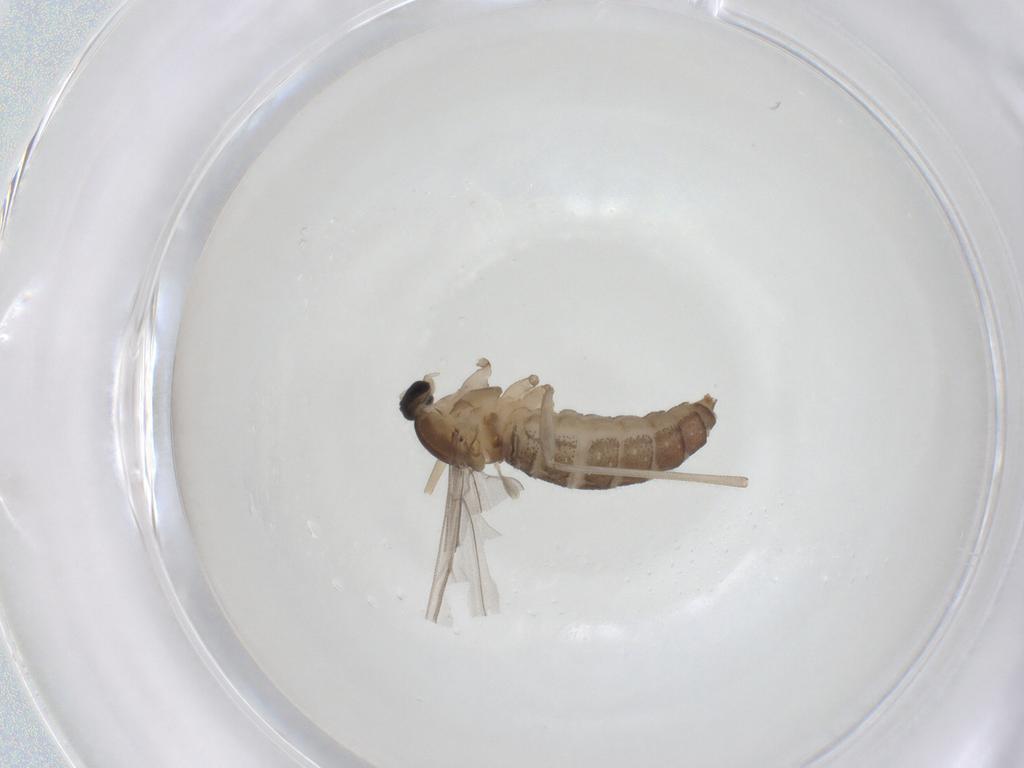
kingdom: Animalia
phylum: Arthropoda
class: Insecta
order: Diptera
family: Cecidomyiidae
